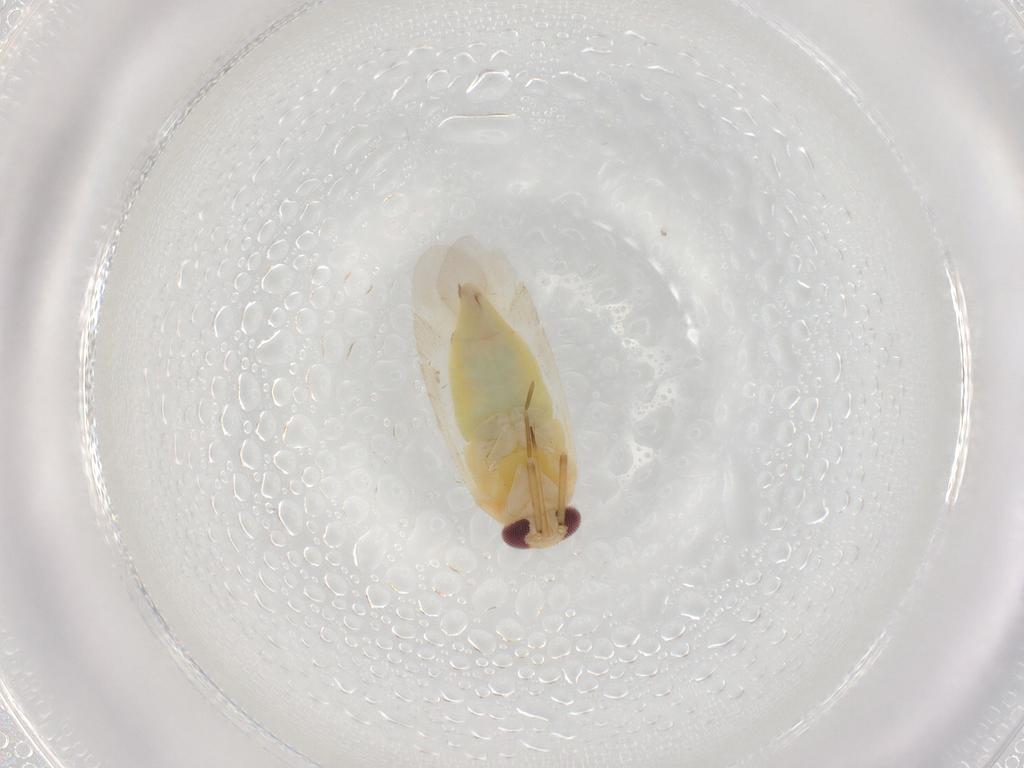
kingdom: Animalia
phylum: Arthropoda
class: Insecta
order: Hemiptera
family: Miridae
